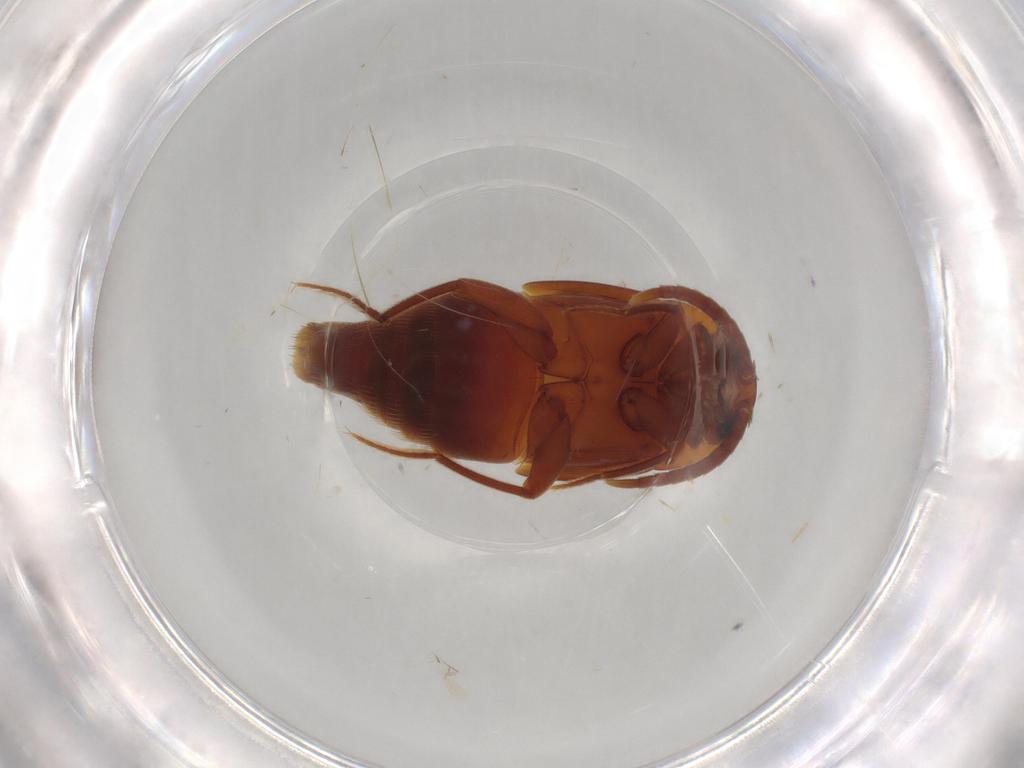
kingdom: Animalia
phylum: Arthropoda
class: Insecta
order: Coleoptera
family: Staphylinidae
